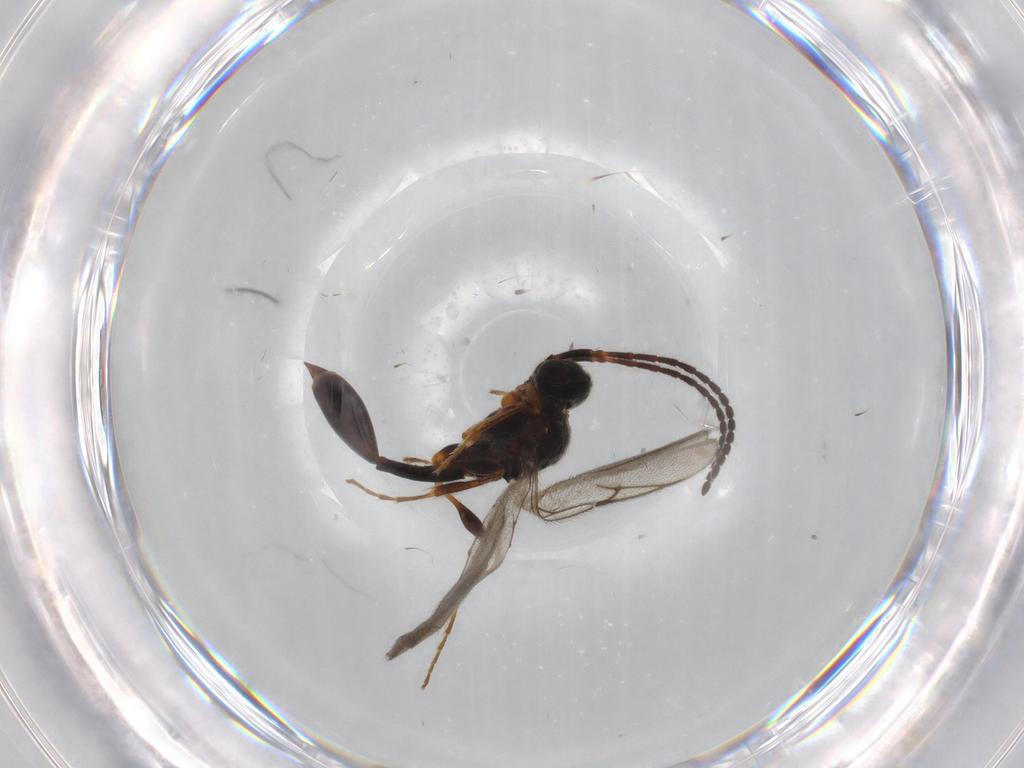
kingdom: Animalia
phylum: Arthropoda
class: Insecta
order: Hymenoptera
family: Diapriidae
